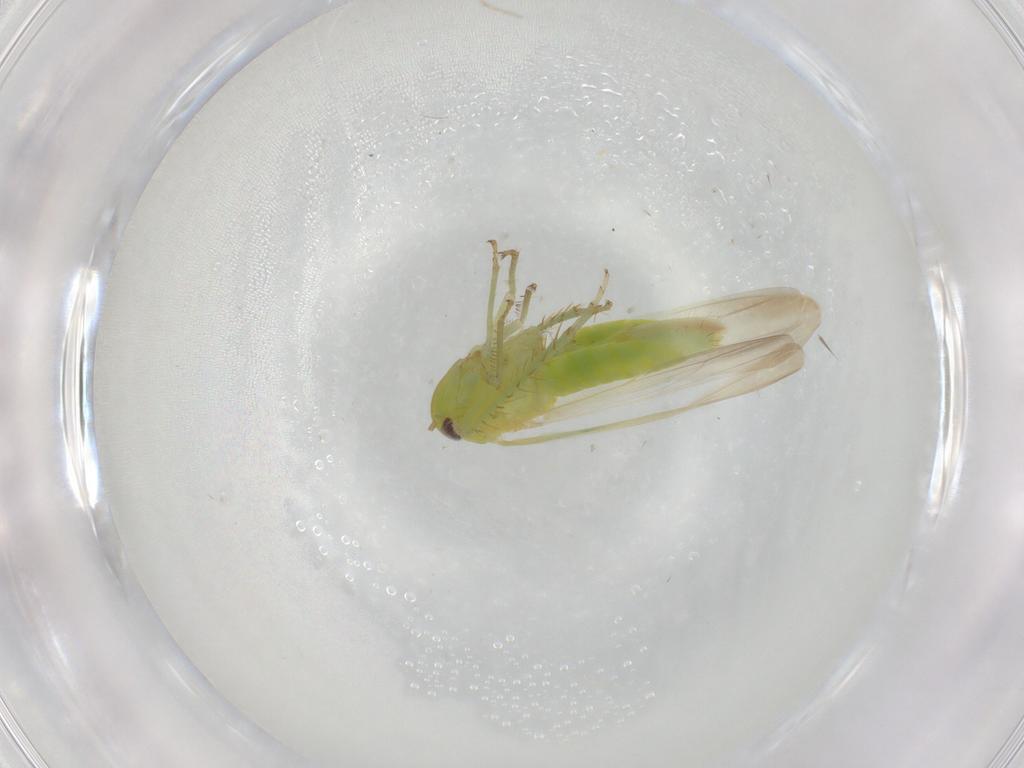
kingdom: Animalia
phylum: Arthropoda
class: Insecta
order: Hemiptera
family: Cicadellidae
